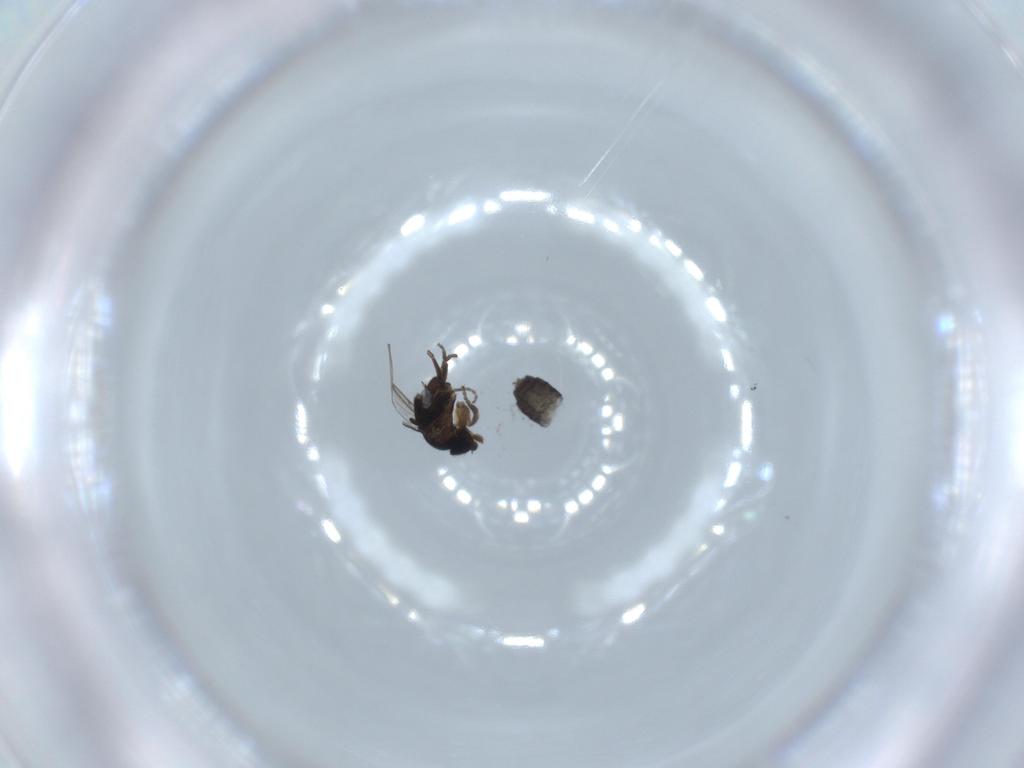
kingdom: Animalia
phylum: Arthropoda
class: Insecta
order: Diptera
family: Phoridae
